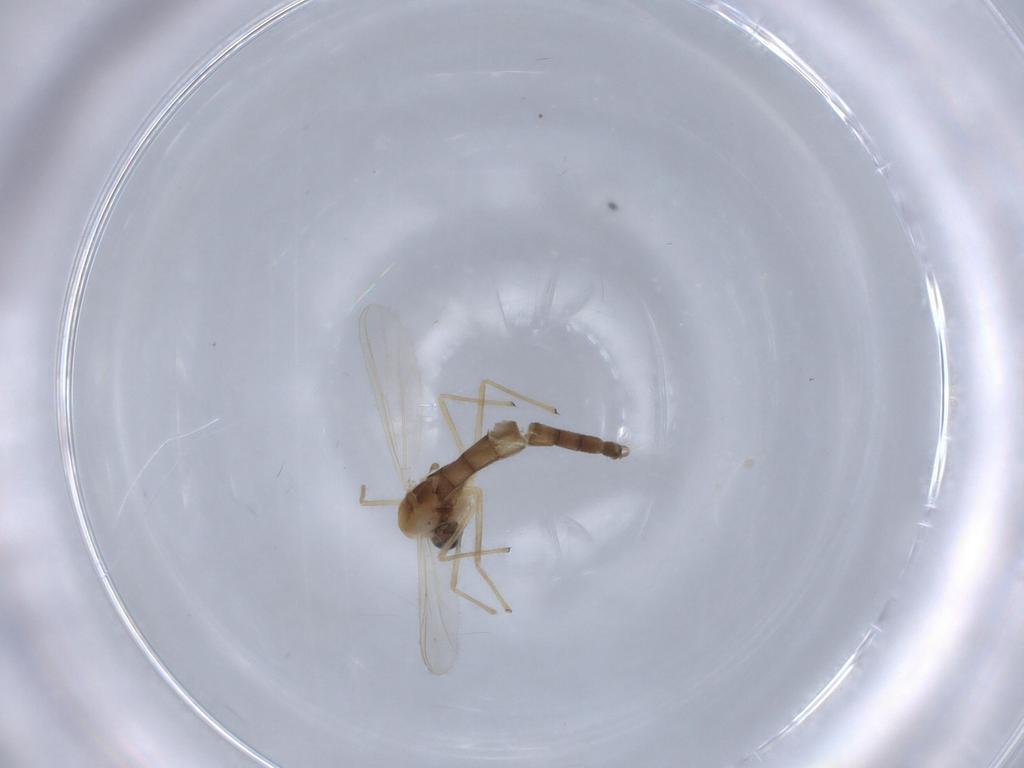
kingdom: Animalia
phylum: Arthropoda
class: Insecta
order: Diptera
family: Chironomidae
